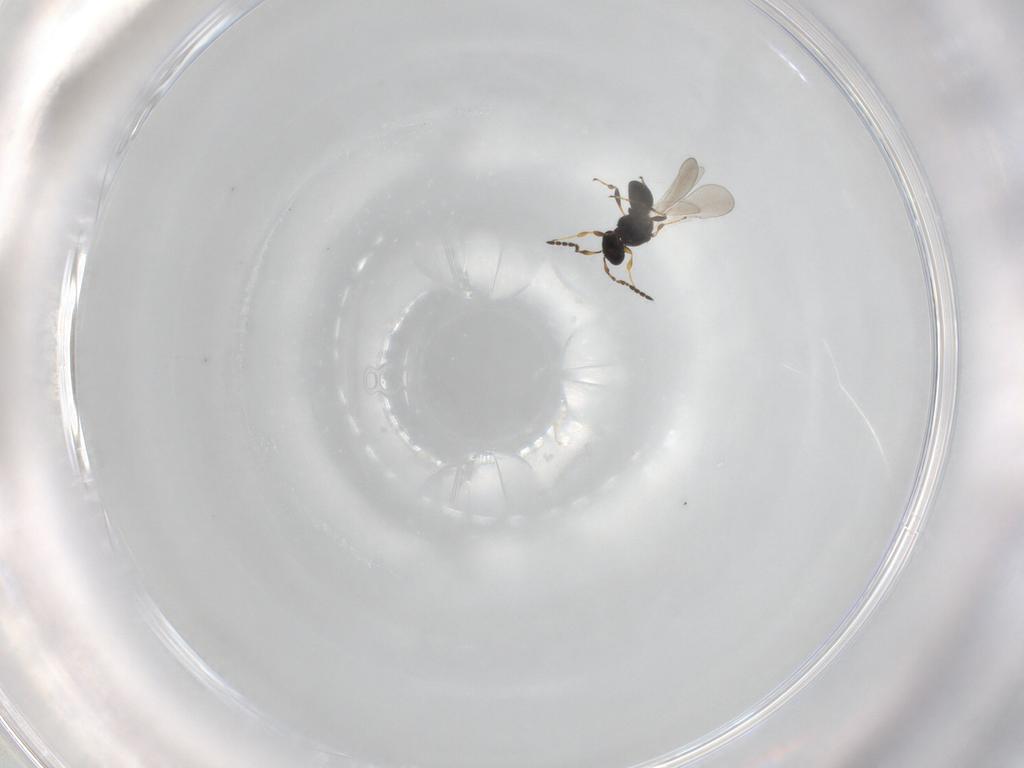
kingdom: Animalia
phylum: Arthropoda
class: Insecta
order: Hymenoptera
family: Platygastridae
